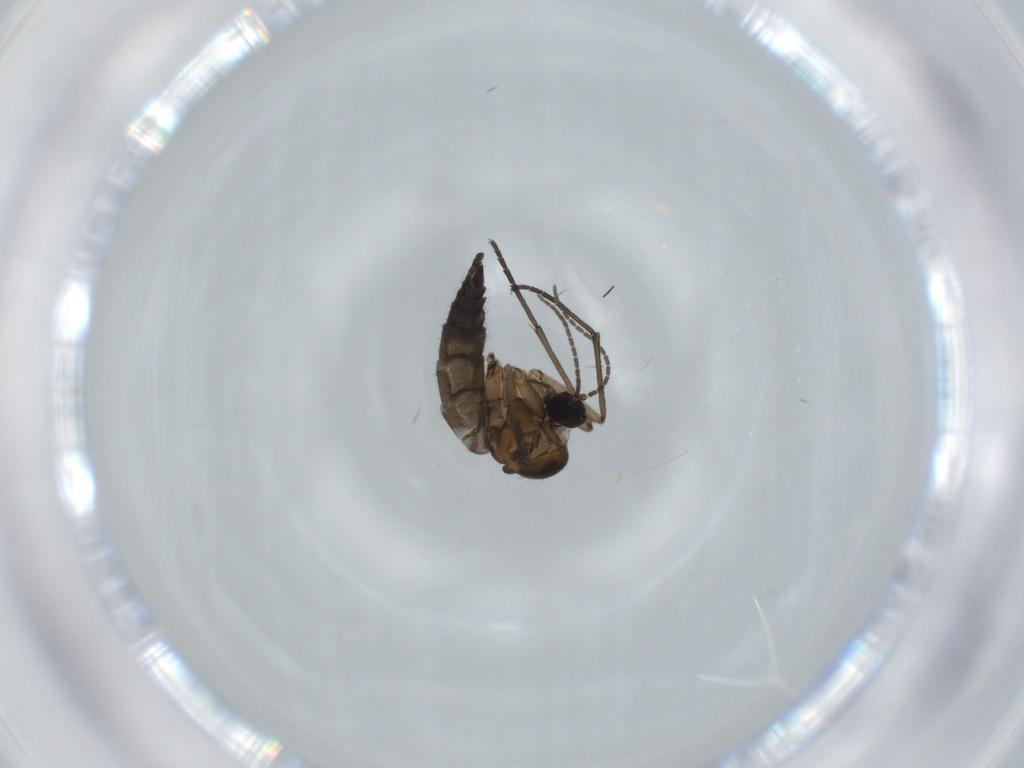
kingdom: Animalia
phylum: Arthropoda
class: Insecta
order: Diptera
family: Sciaridae
